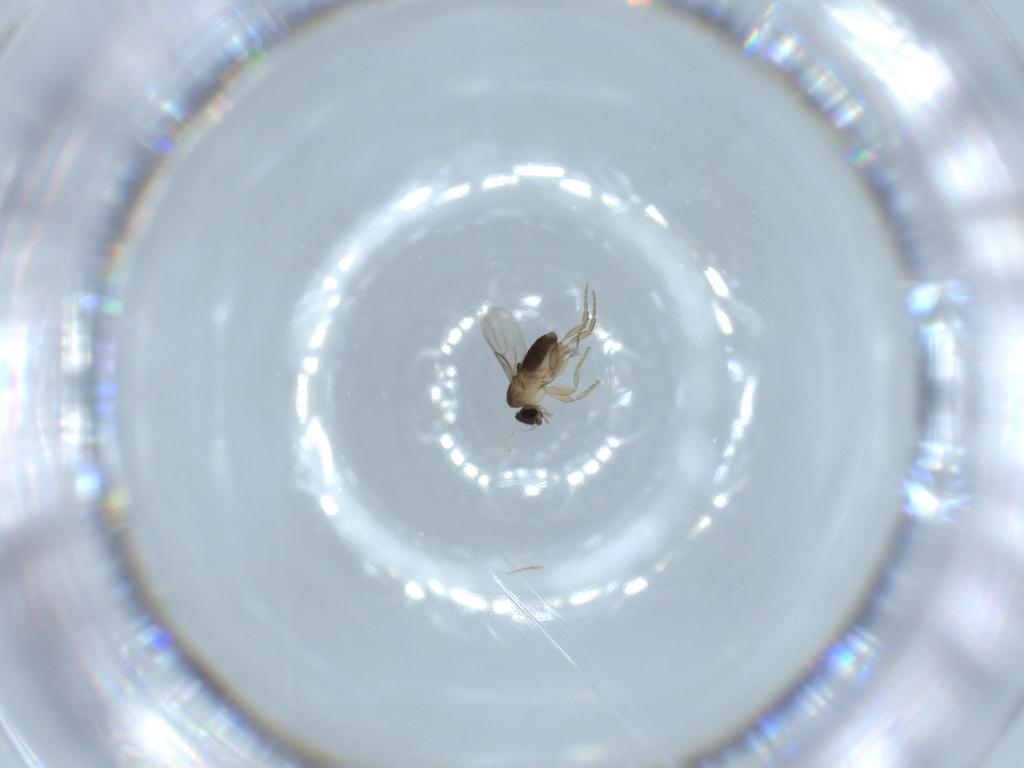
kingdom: Animalia
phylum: Arthropoda
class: Insecta
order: Diptera
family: Phoridae
